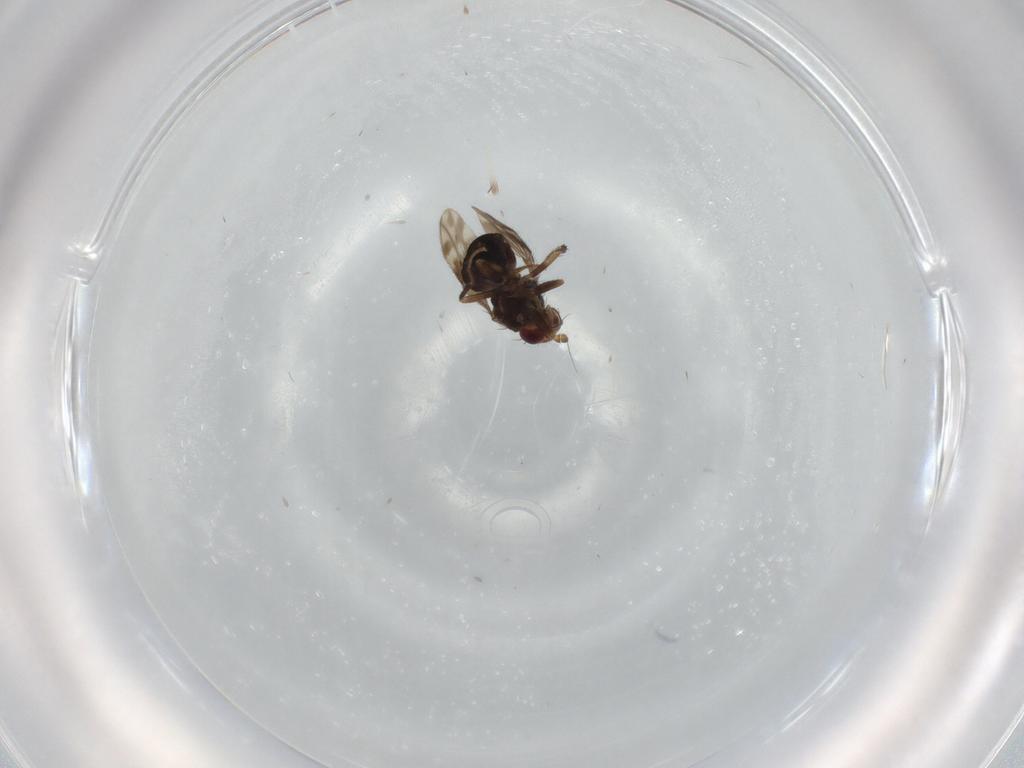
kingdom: Animalia
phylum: Arthropoda
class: Insecta
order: Diptera
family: Sphaeroceridae
